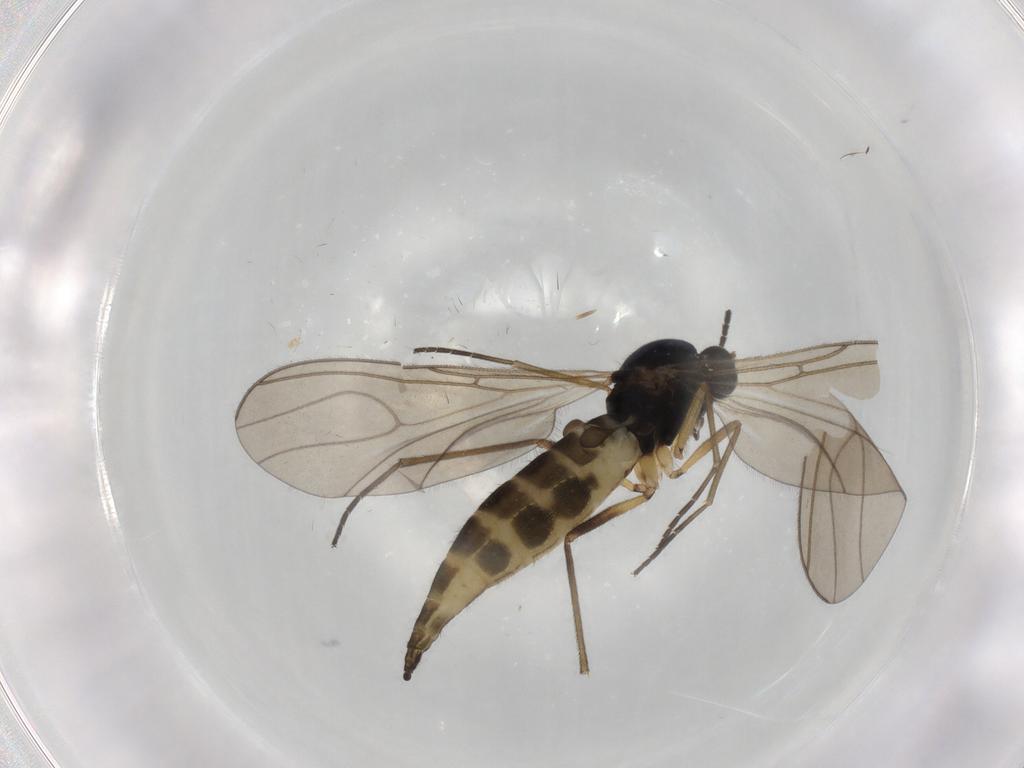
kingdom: Animalia
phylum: Arthropoda
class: Insecta
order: Diptera
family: Sciaridae
